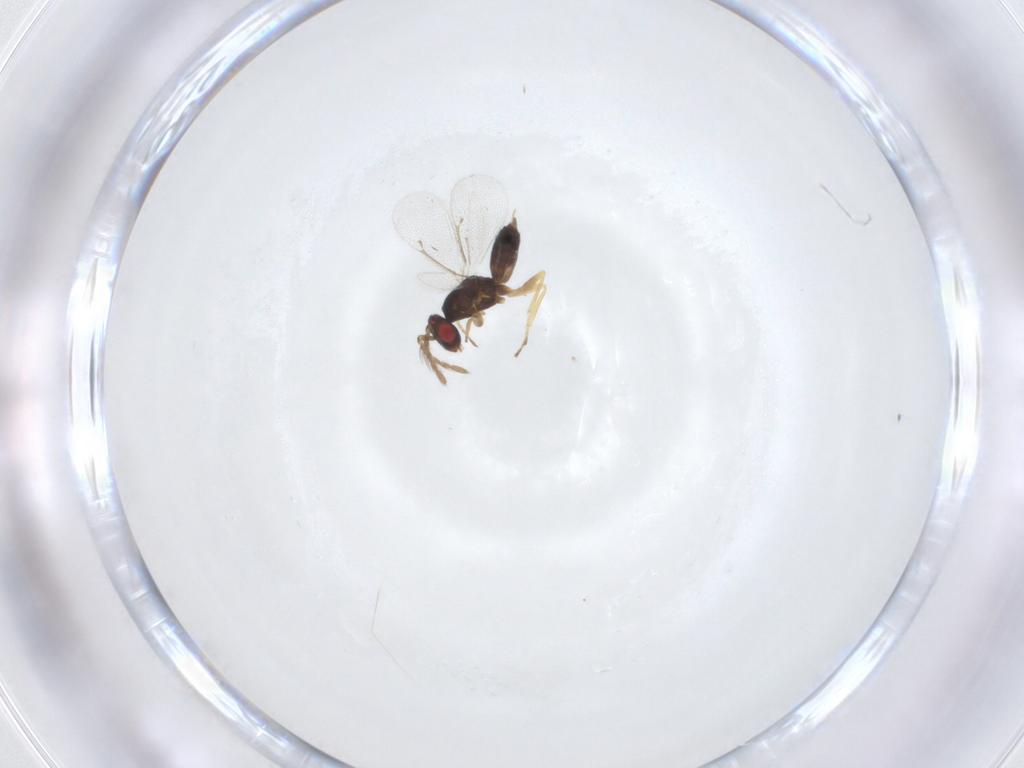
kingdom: Animalia
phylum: Arthropoda
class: Insecta
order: Hymenoptera
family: Eulophidae
